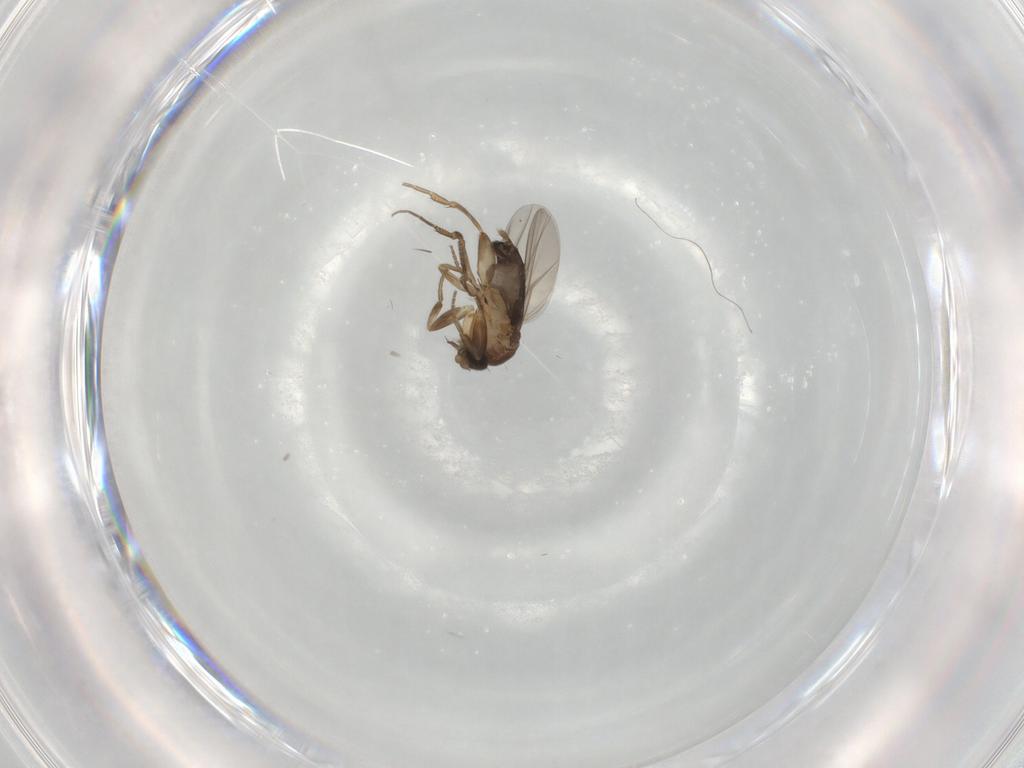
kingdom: Animalia
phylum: Arthropoda
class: Insecta
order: Diptera
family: Phoridae
